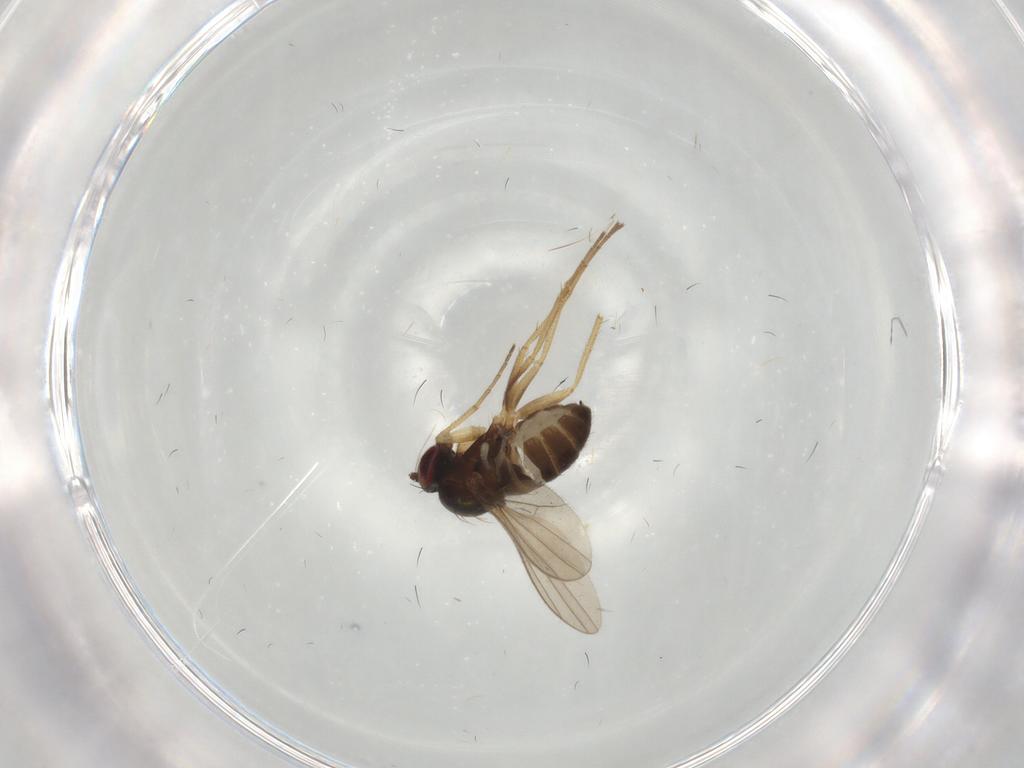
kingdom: Animalia
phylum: Arthropoda
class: Insecta
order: Diptera
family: Dolichopodidae
